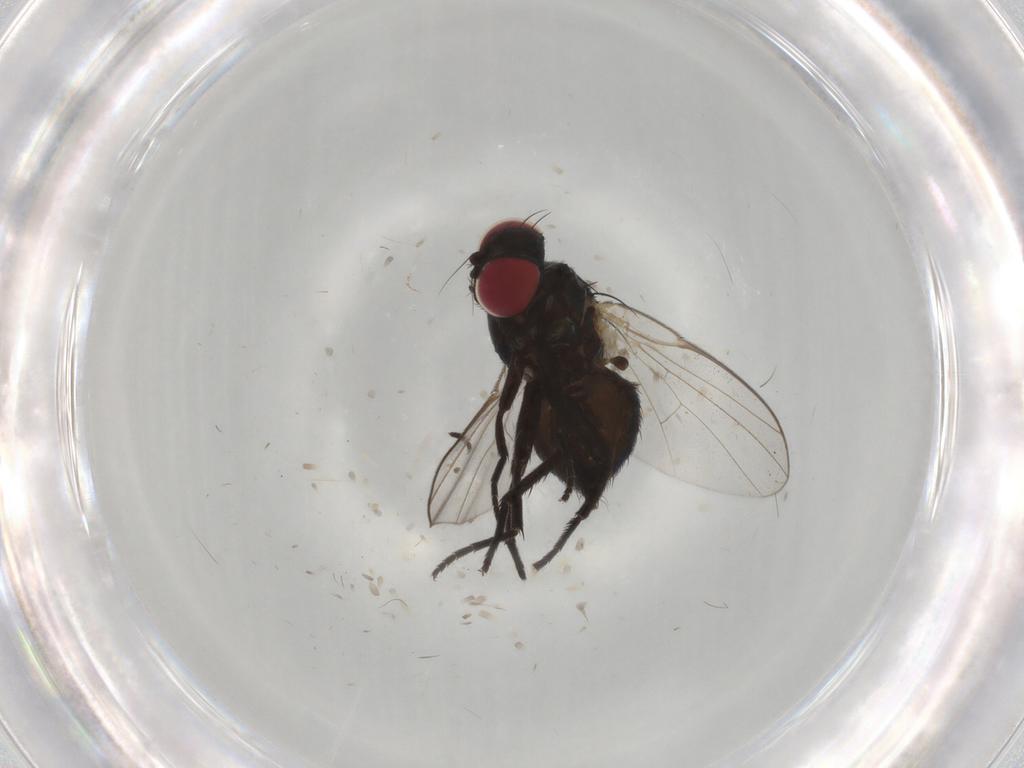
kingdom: Animalia
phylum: Arthropoda
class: Insecta
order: Diptera
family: Agromyzidae
